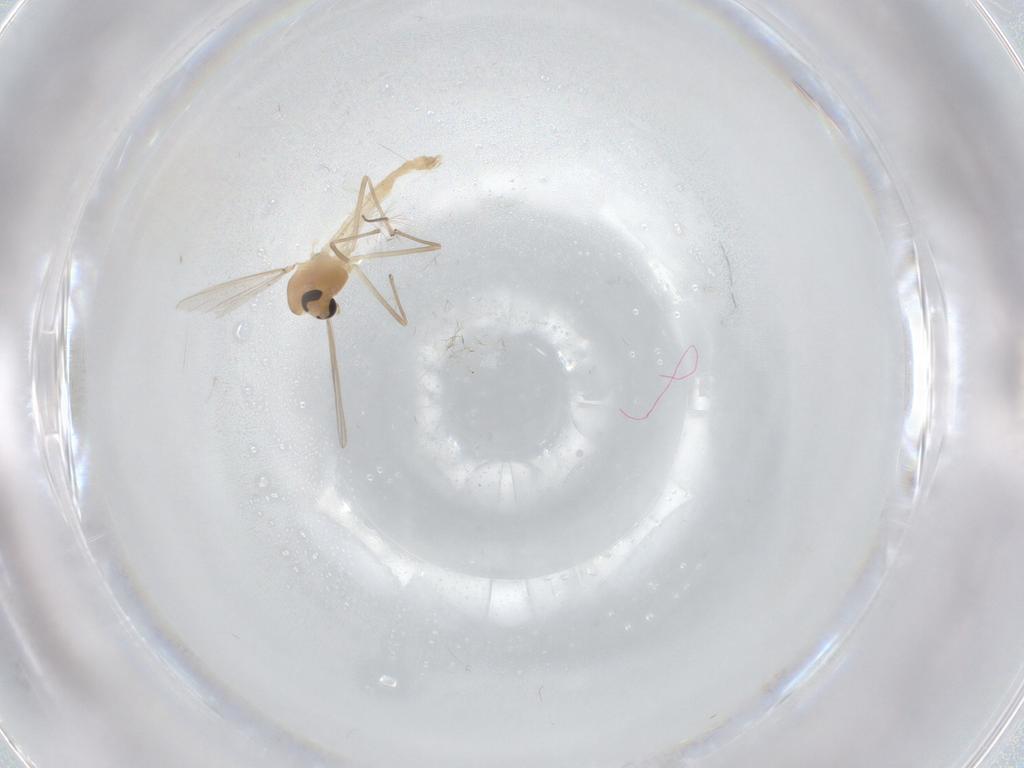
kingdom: Animalia
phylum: Arthropoda
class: Insecta
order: Diptera
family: Chironomidae
